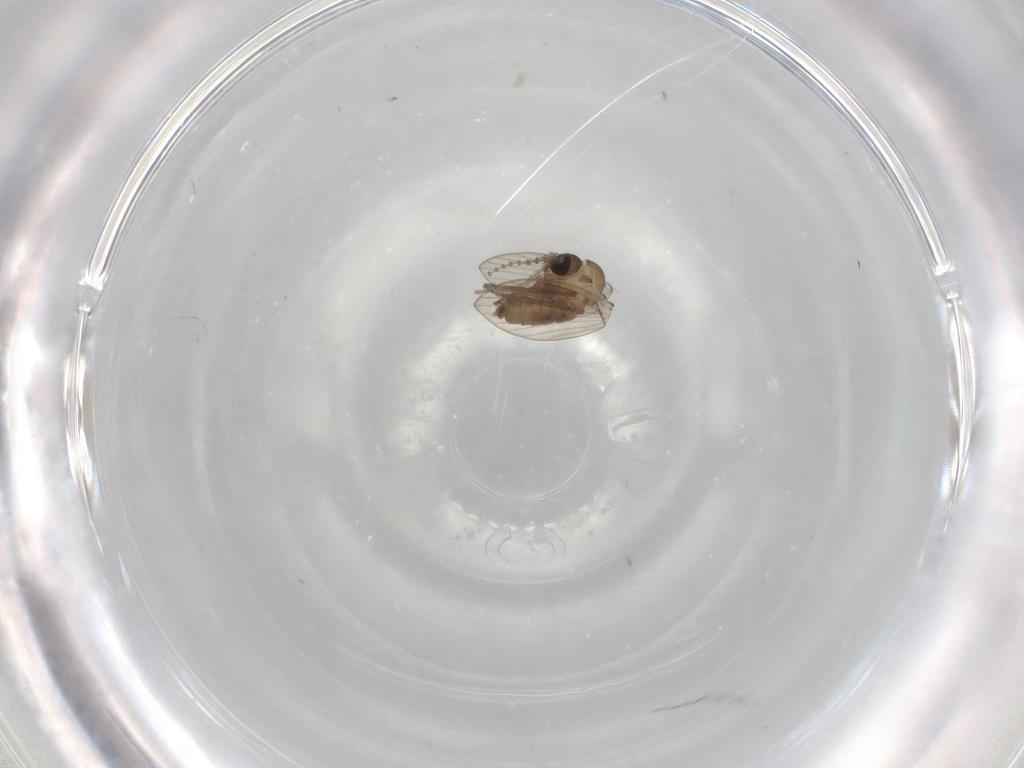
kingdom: Animalia
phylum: Arthropoda
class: Insecta
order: Diptera
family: Psychodidae
